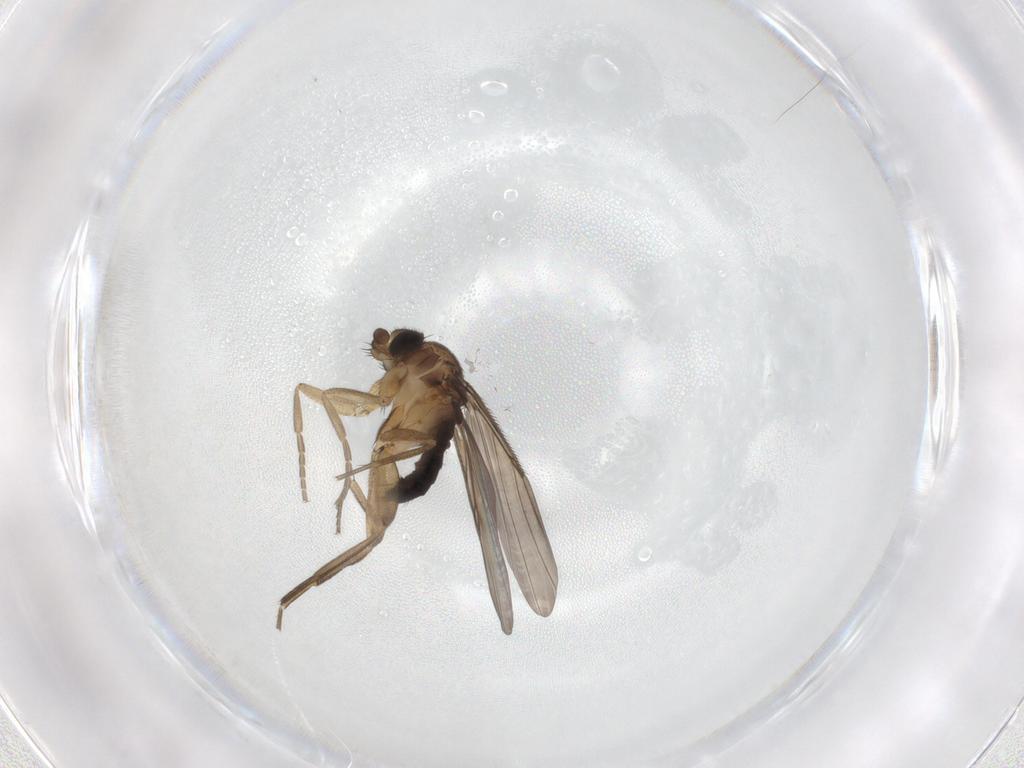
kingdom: Animalia
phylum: Arthropoda
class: Insecta
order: Diptera
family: Phoridae
